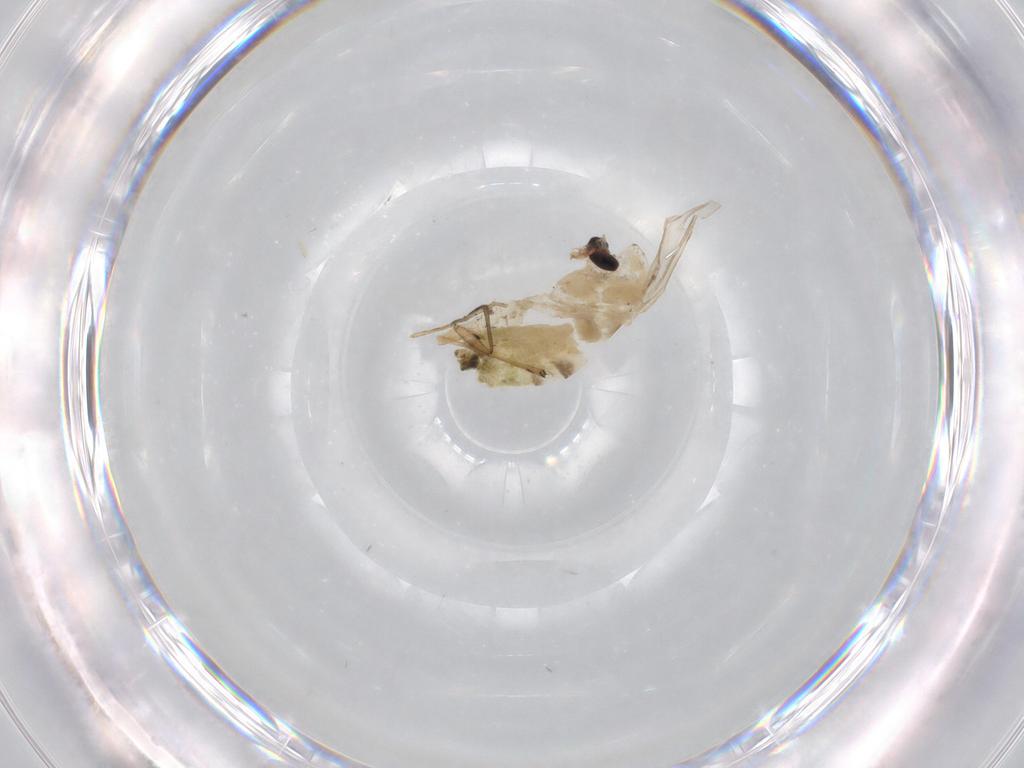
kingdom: Animalia
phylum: Arthropoda
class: Insecta
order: Diptera
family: Chironomidae
